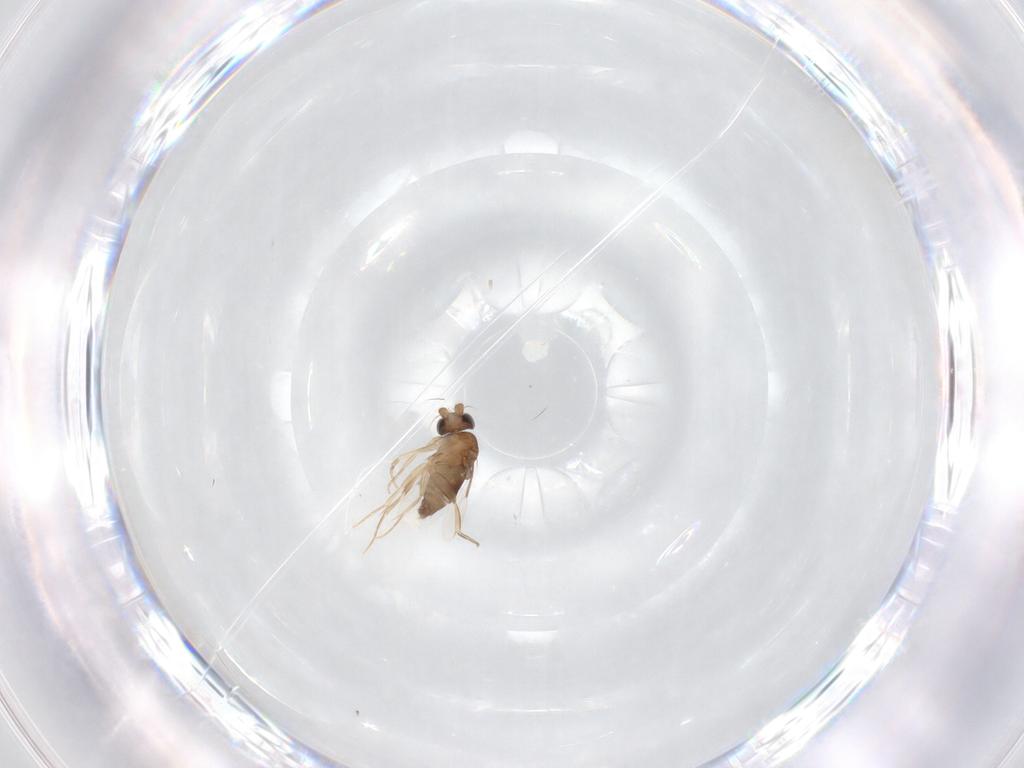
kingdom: Animalia
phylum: Arthropoda
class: Insecta
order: Diptera
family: Phoridae
